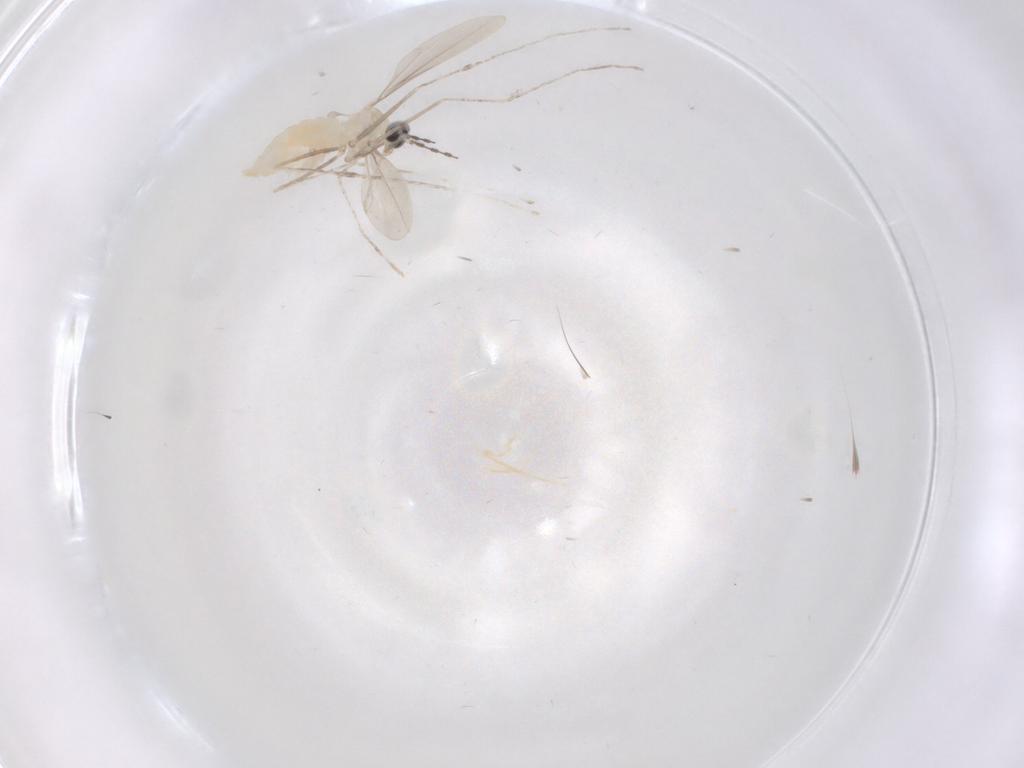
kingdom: Animalia
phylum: Arthropoda
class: Insecta
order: Diptera
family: Cecidomyiidae
